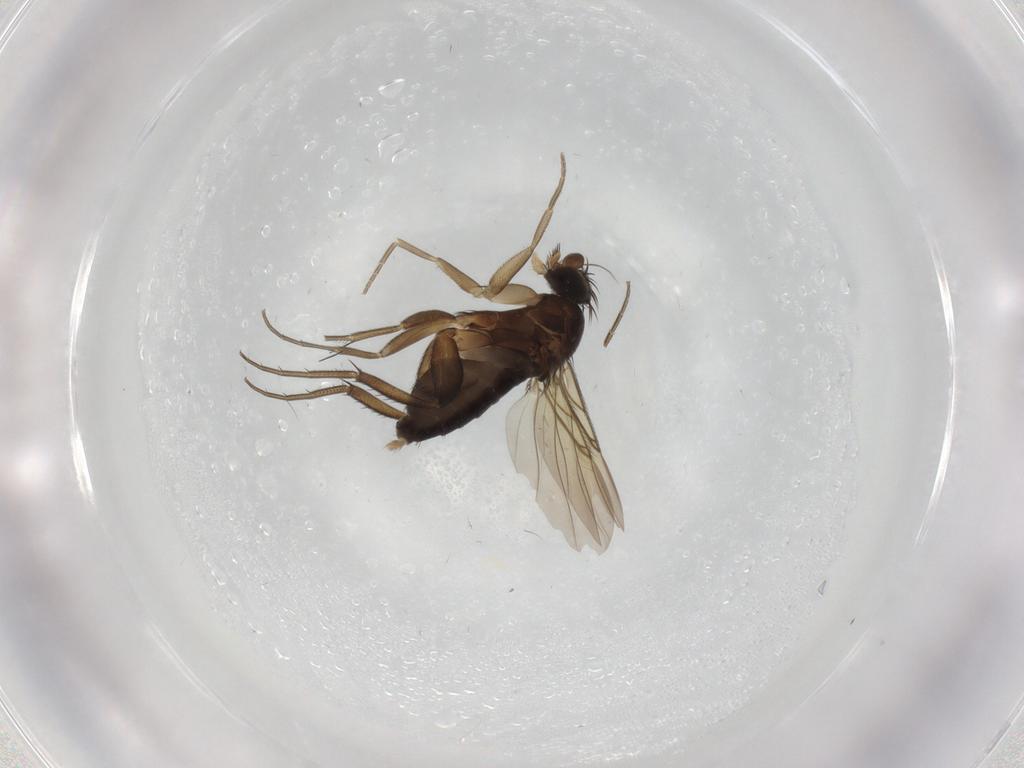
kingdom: Animalia
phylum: Arthropoda
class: Insecta
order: Diptera
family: Phoridae
